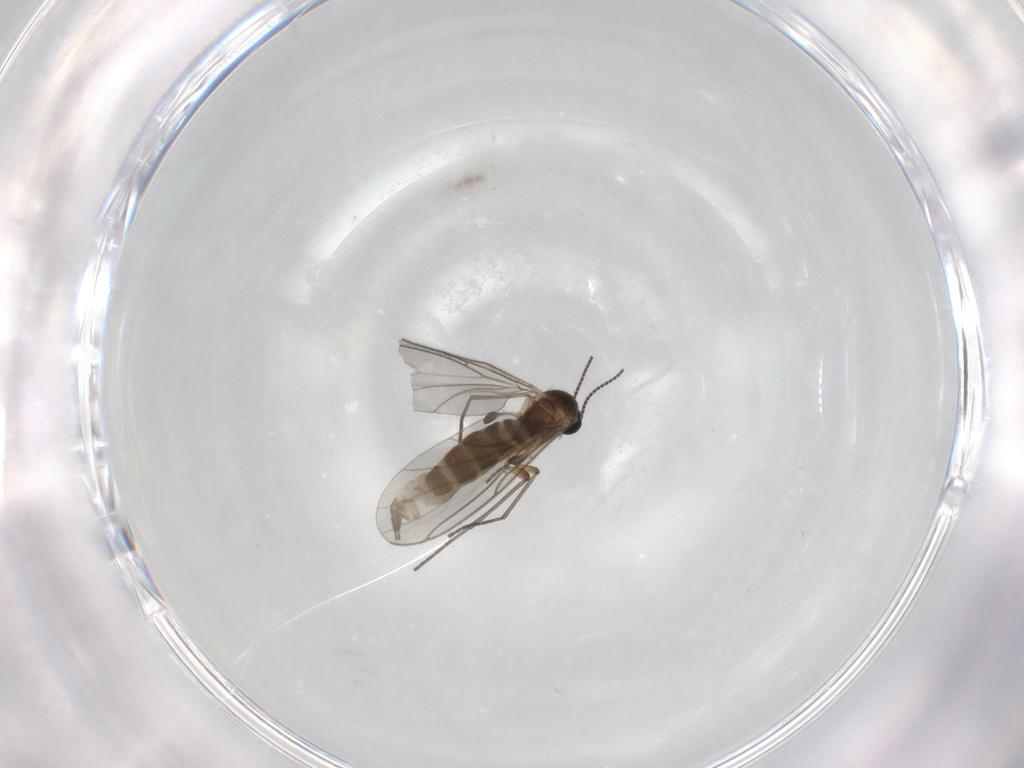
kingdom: Animalia
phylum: Arthropoda
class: Insecta
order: Diptera
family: Sciaridae
